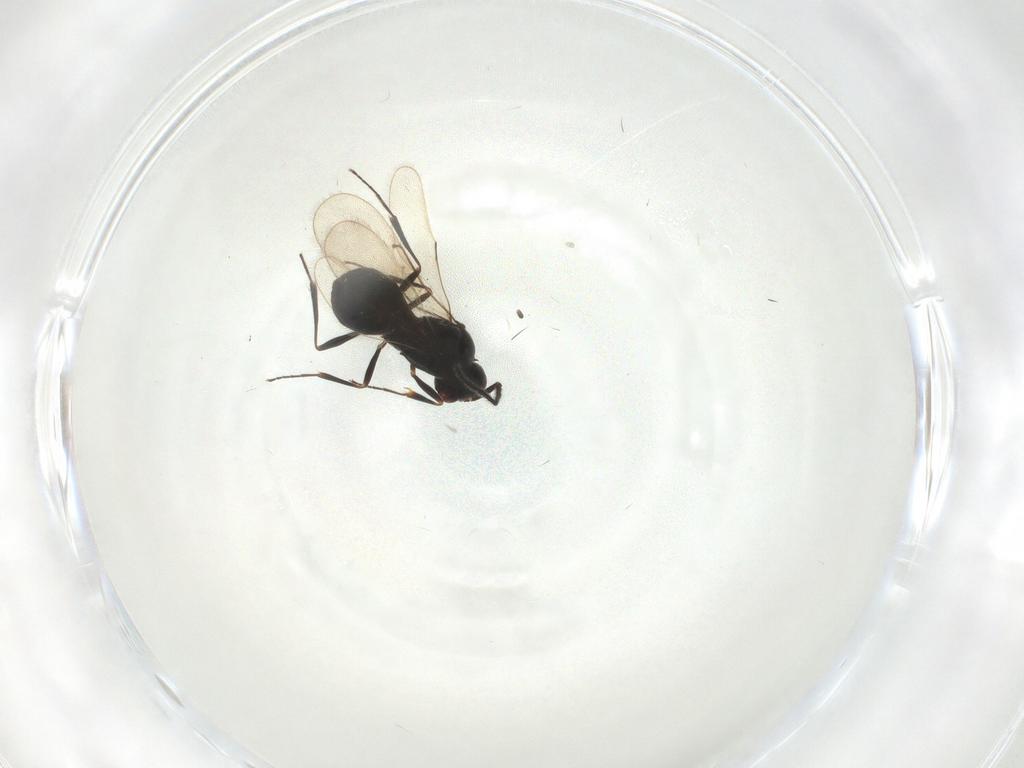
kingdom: Animalia
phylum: Arthropoda
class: Insecta
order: Hymenoptera
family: Scelionidae
